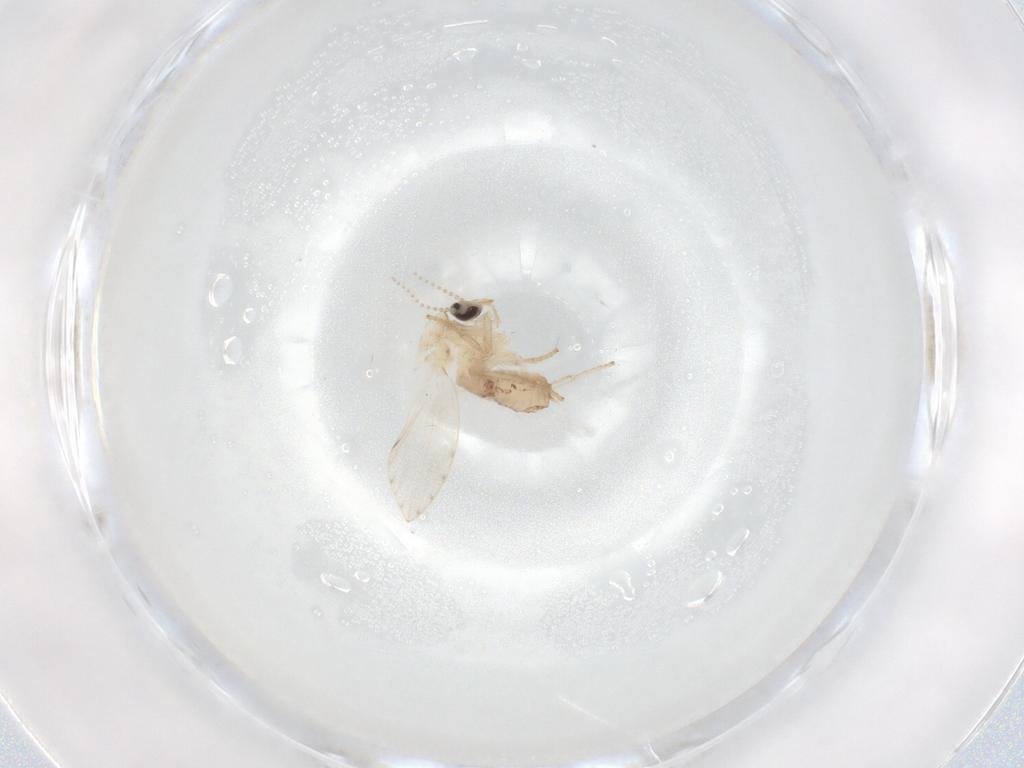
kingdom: Animalia
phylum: Arthropoda
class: Insecta
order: Diptera
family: Psychodidae
